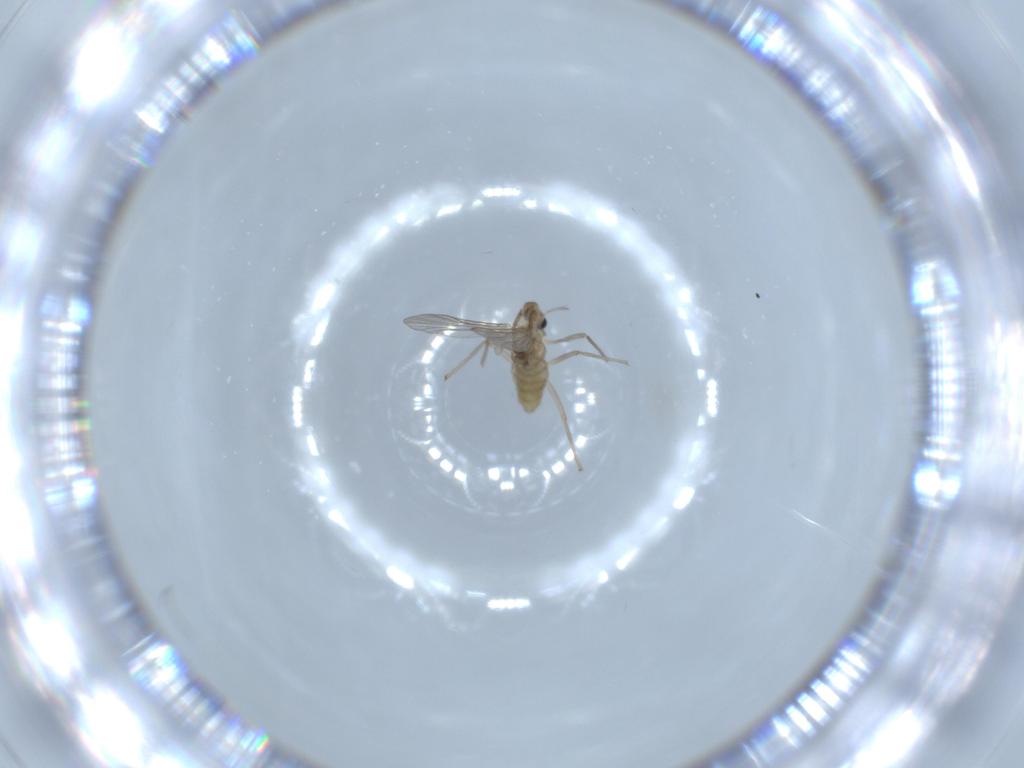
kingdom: Animalia
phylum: Arthropoda
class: Insecta
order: Diptera
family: Chironomidae
